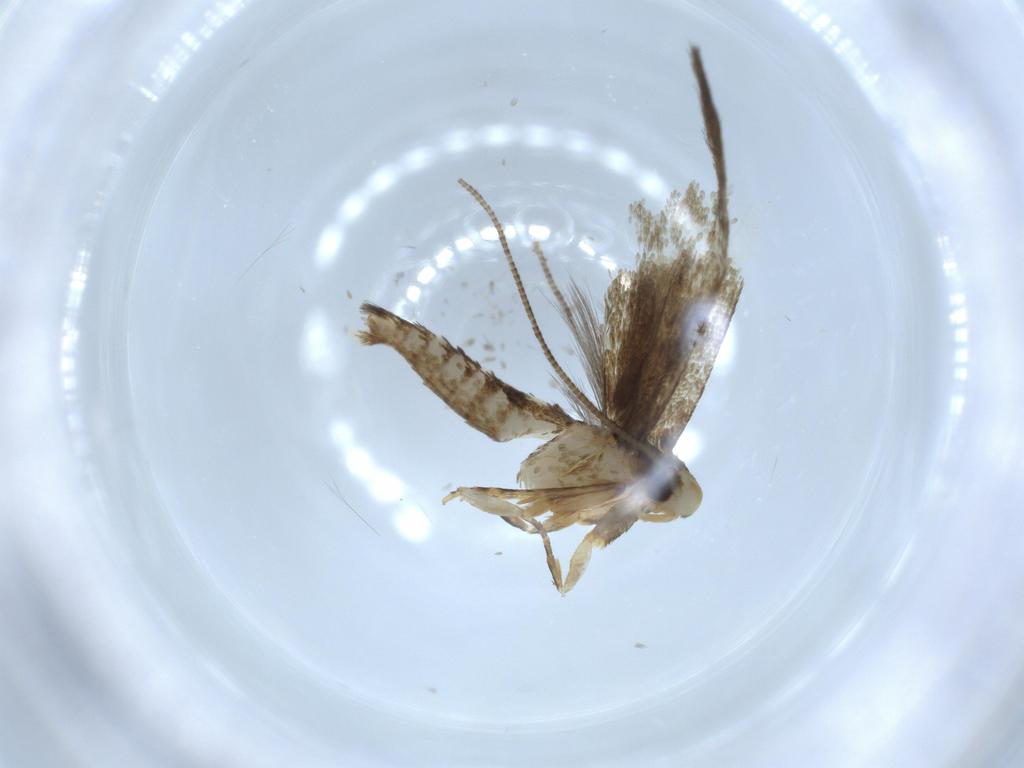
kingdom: Animalia
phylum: Arthropoda
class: Insecta
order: Lepidoptera
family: Tineidae
